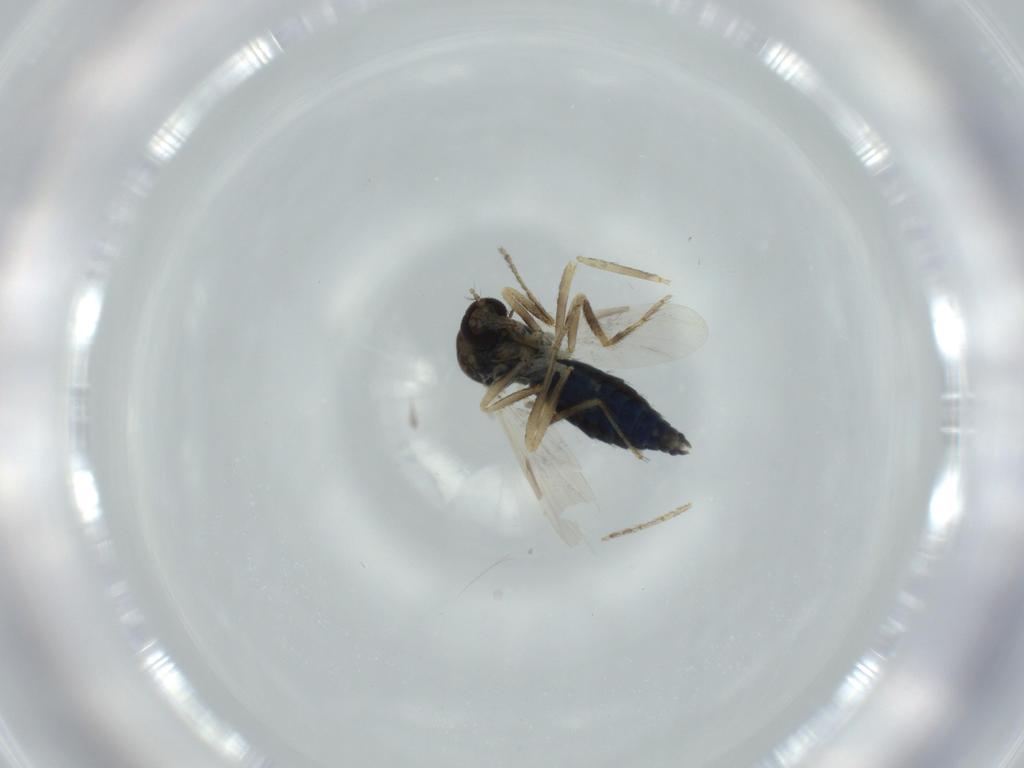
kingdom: Animalia
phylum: Arthropoda
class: Insecta
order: Diptera
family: Ceratopogonidae
